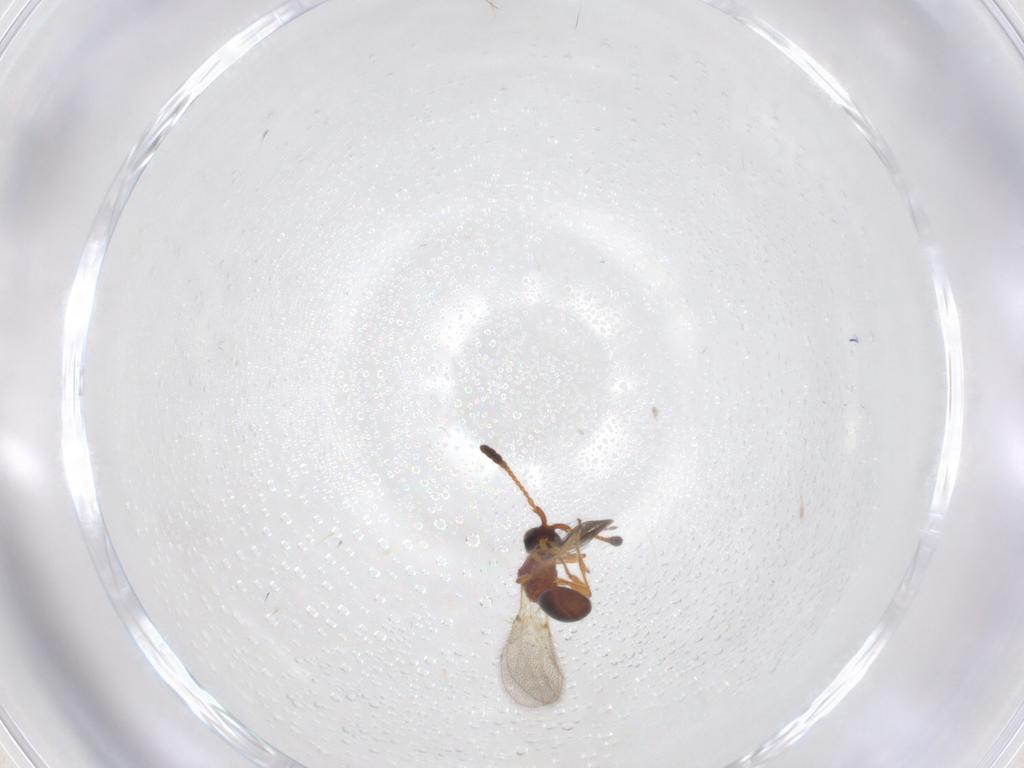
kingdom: Animalia
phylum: Arthropoda
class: Insecta
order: Hymenoptera
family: Diapriidae
